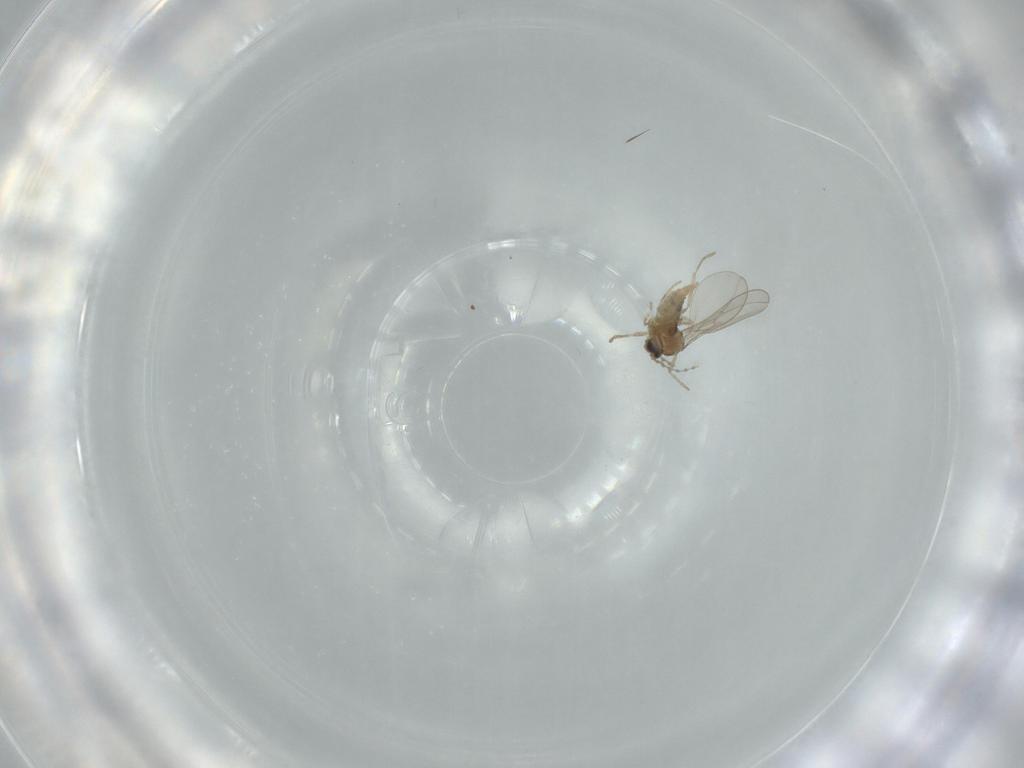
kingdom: Animalia
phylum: Arthropoda
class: Insecta
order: Diptera
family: Cecidomyiidae
